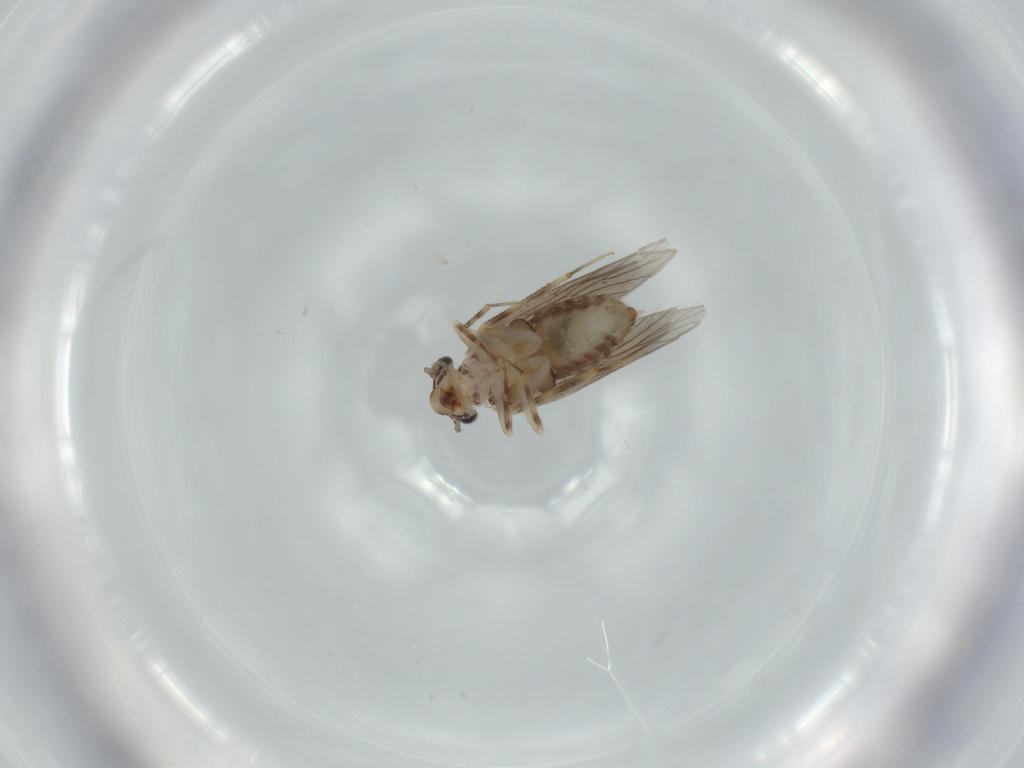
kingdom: Animalia
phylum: Arthropoda
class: Insecta
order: Psocodea
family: Lepidopsocidae
